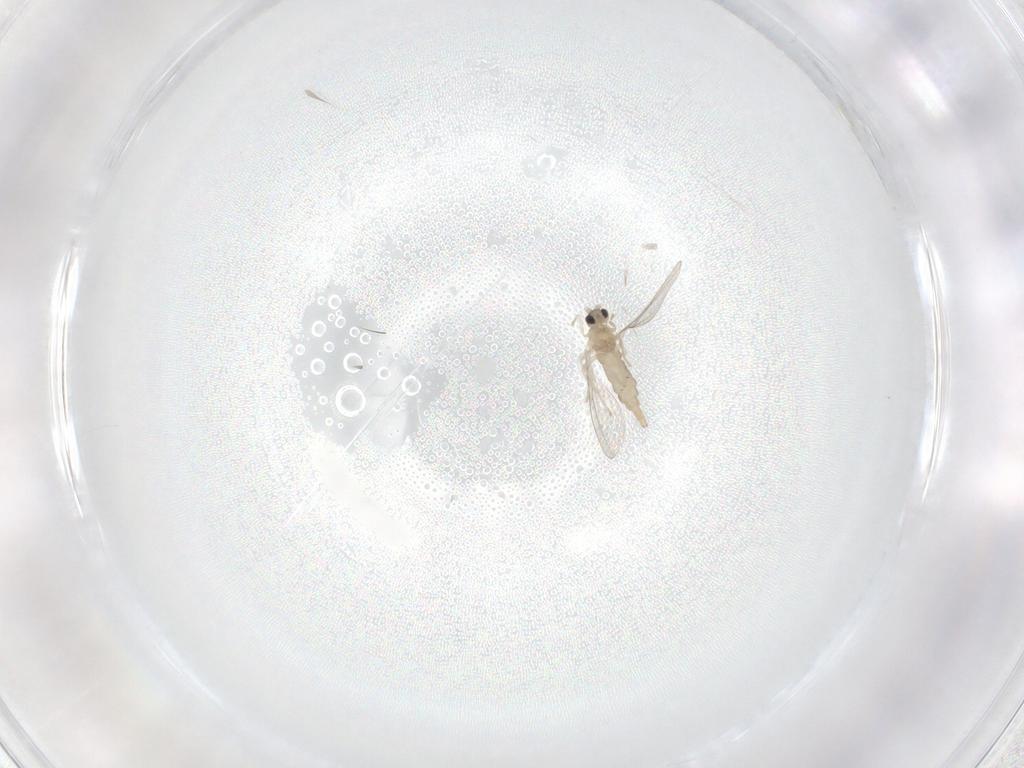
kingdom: Animalia
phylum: Arthropoda
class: Insecta
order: Diptera
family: Cecidomyiidae
